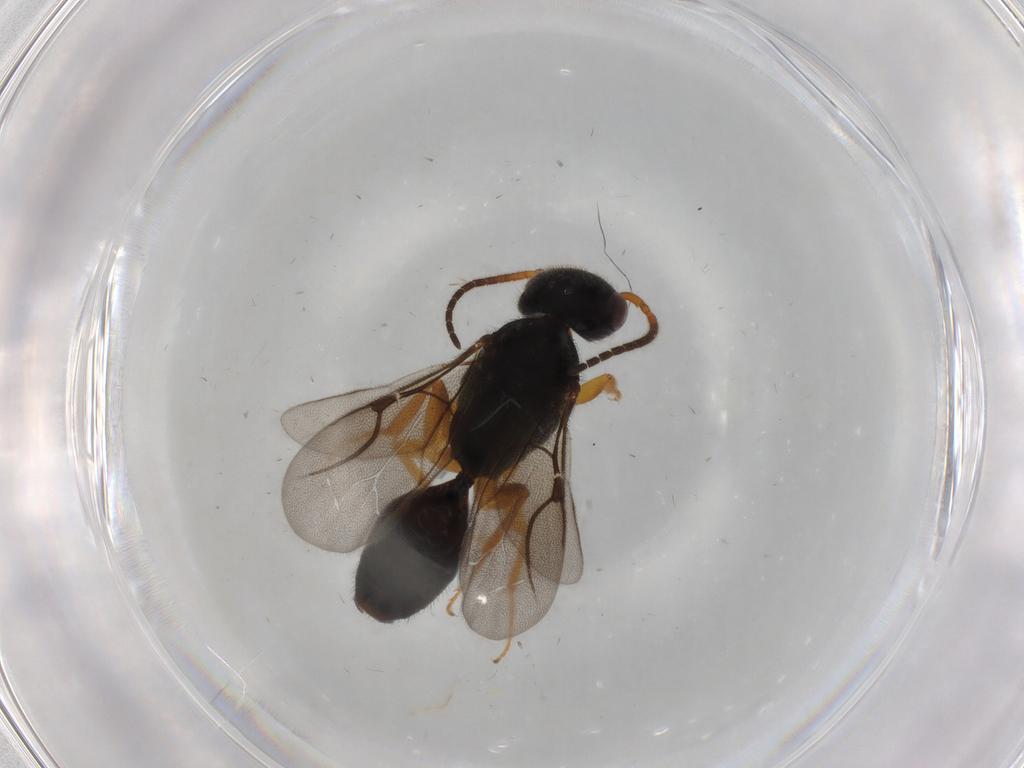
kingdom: Animalia
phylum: Arthropoda
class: Insecta
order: Hymenoptera
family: Bethylidae
